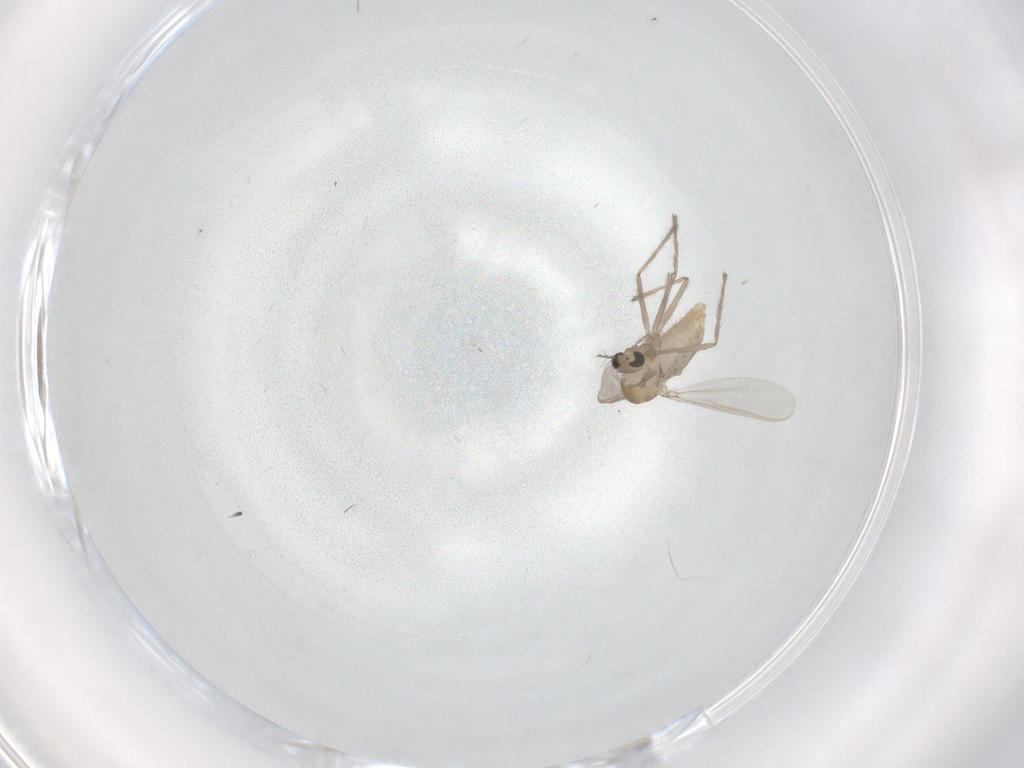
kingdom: Animalia
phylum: Arthropoda
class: Insecta
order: Diptera
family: Chironomidae
